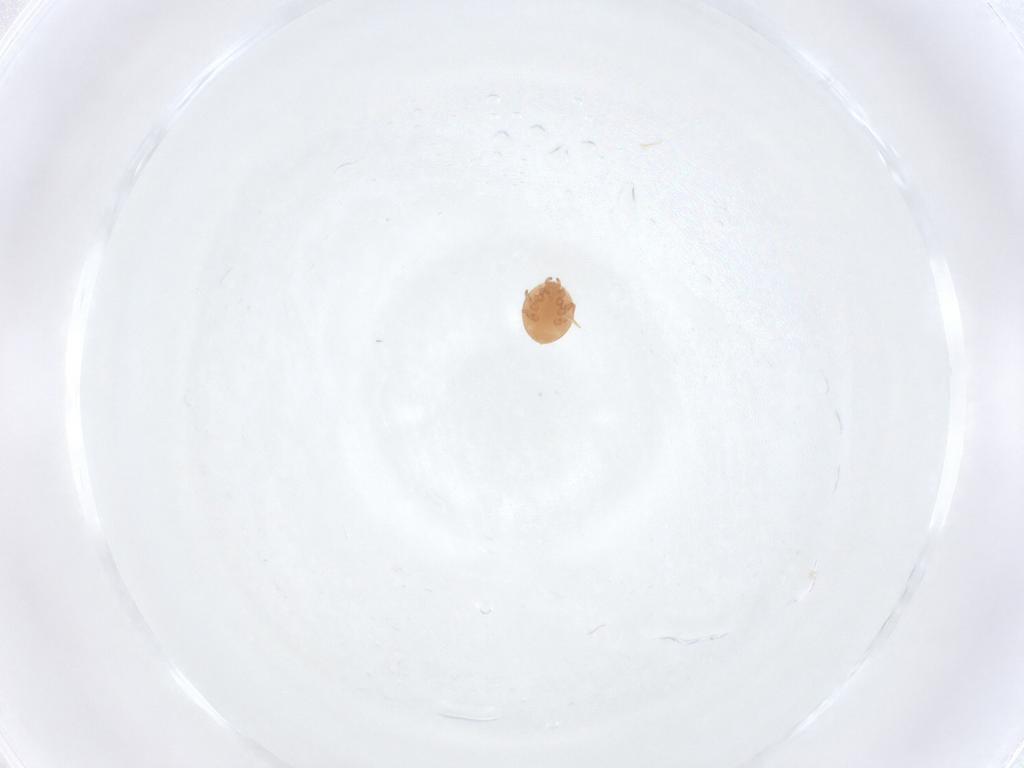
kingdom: Animalia
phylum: Arthropoda
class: Arachnida
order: Mesostigmata
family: Trematuridae
